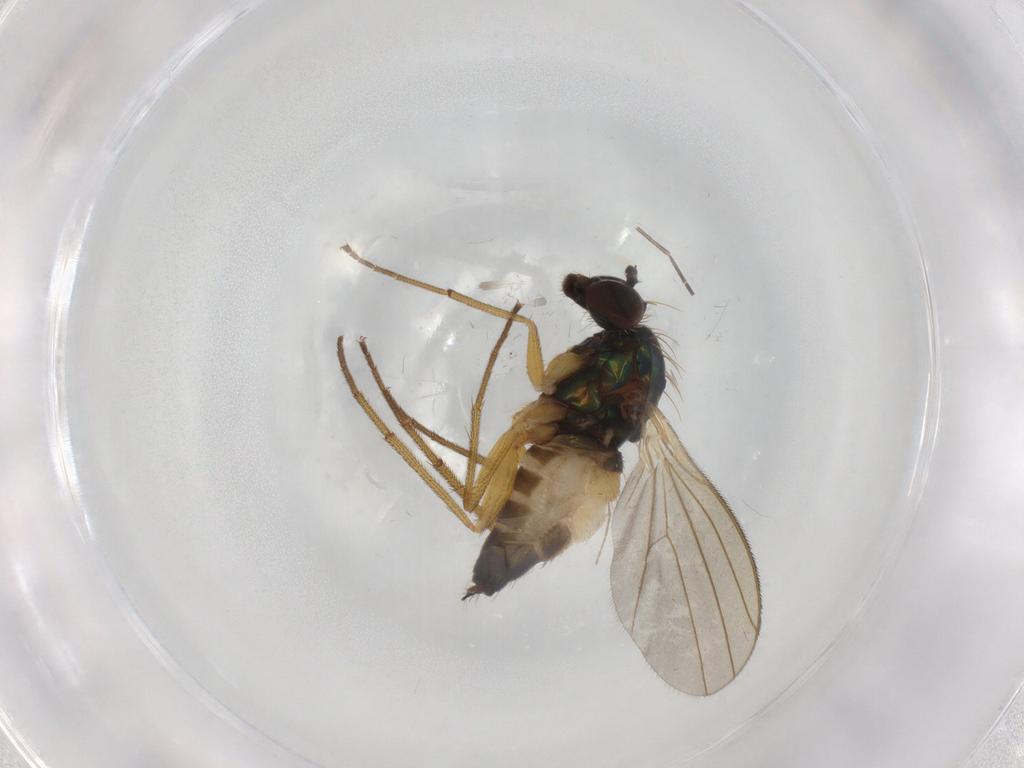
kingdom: Animalia
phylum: Arthropoda
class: Insecta
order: Diptera
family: Dolichopodidae
